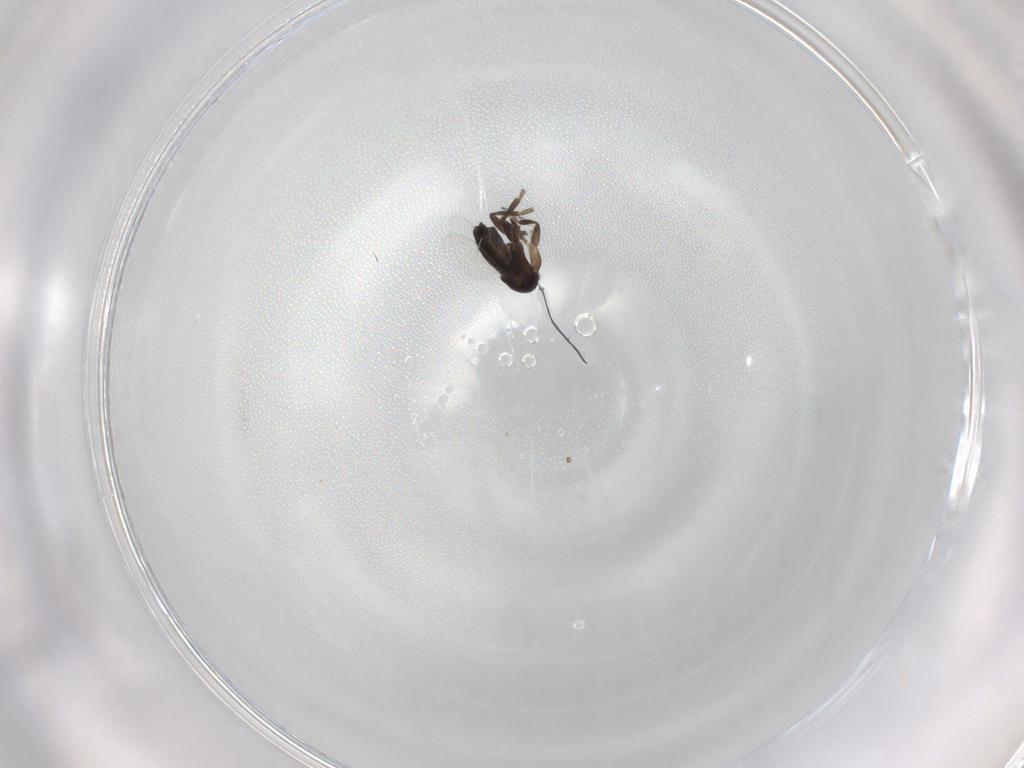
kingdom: Animalia
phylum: Arthropoda
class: Insecta
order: Diptera
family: Phoridae
